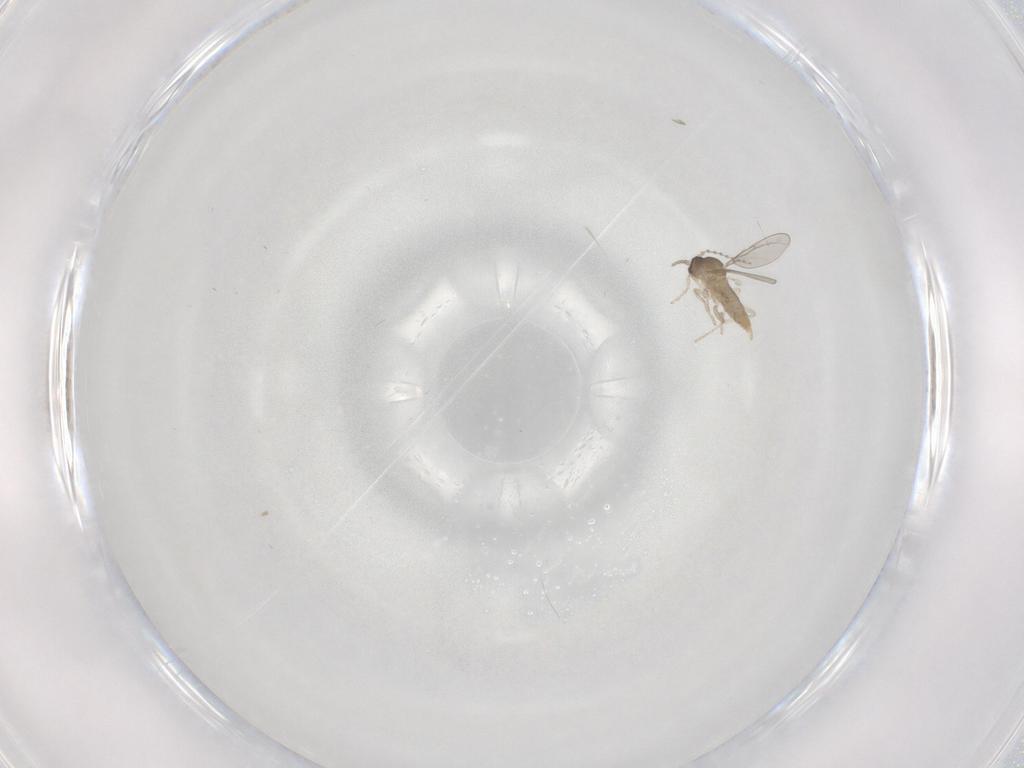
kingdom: Animalia
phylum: Arthropoda
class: Insecta
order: Diptera
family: Cecidomyiidae
